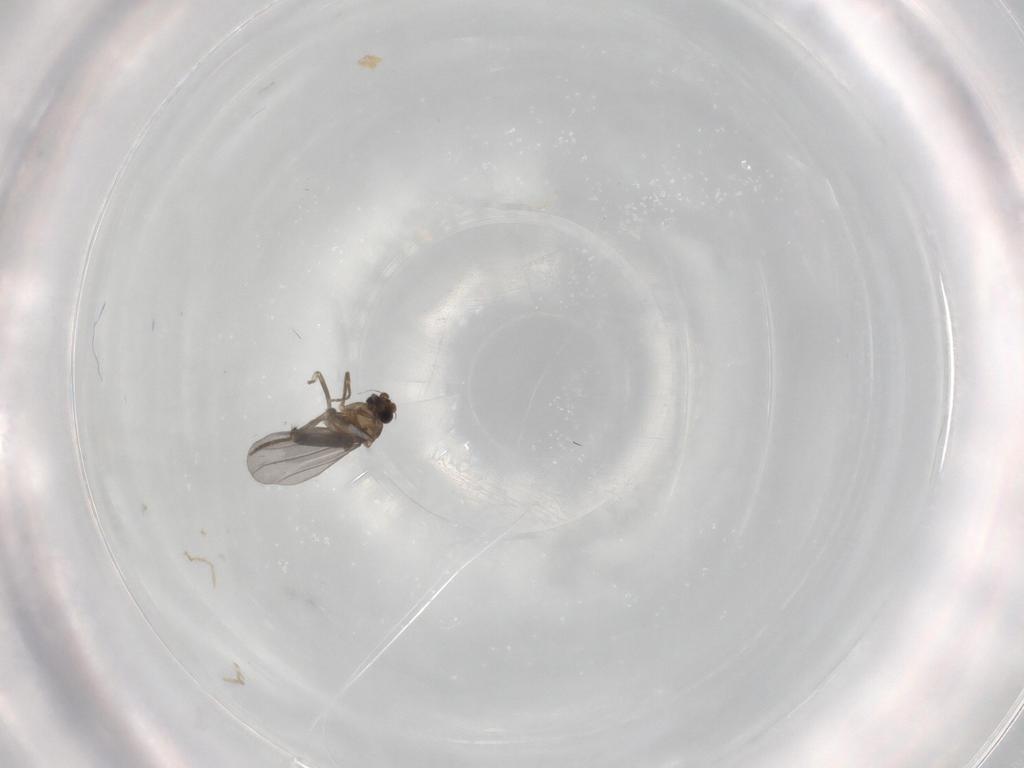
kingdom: Animalia
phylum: Arthropoda
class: Insecta
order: Diptera
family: Phoridae
